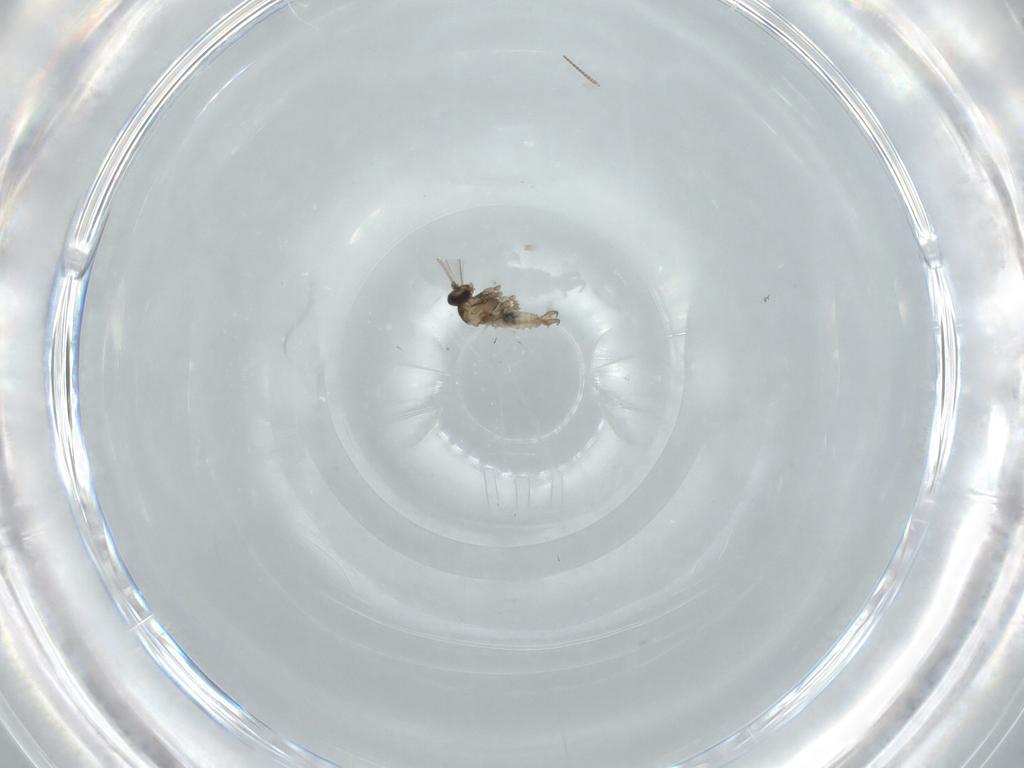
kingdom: Animalia
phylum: Arthropoda
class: Insecta
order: Diptera
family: Cecidomyiidae
